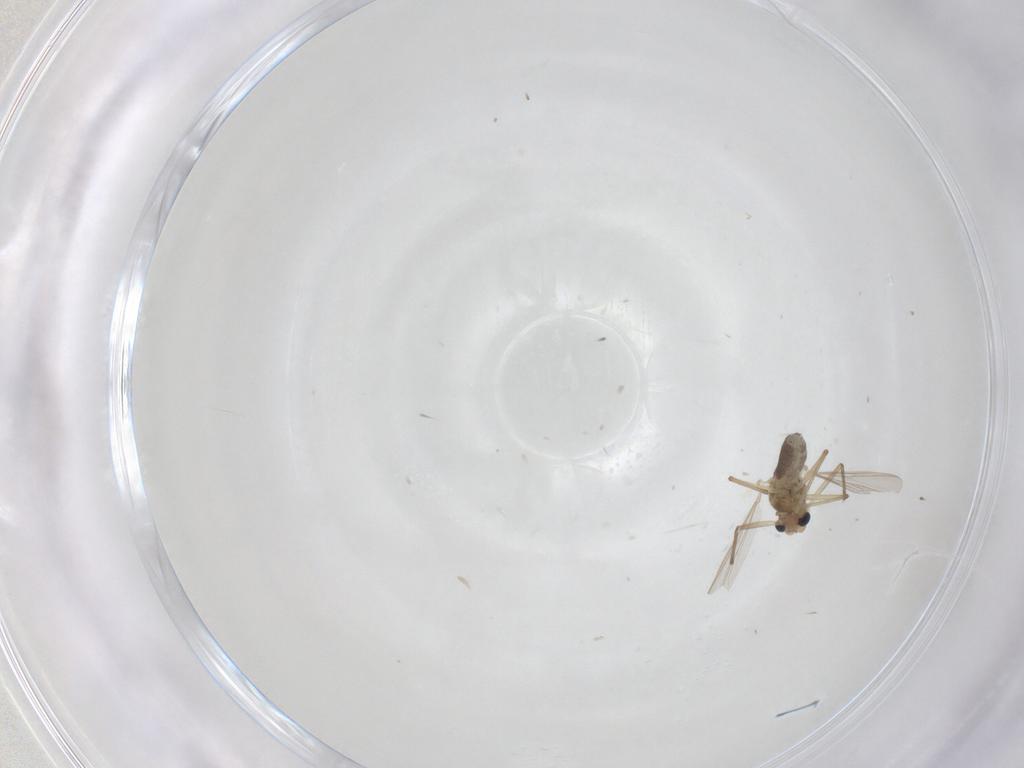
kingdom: Animalia
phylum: Arthropoda
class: Insecta
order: Diptera
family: Chironomidae
